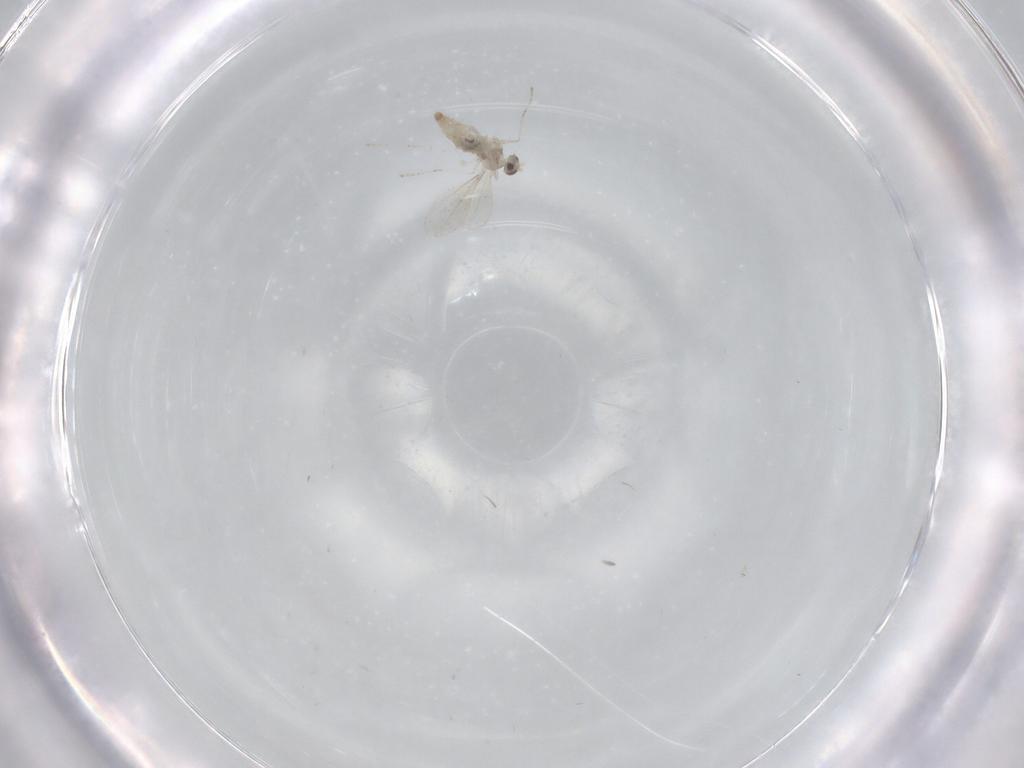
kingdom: Animalia
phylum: Arthropoda
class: Insecta
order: Diptera
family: Cecidomyiidae
